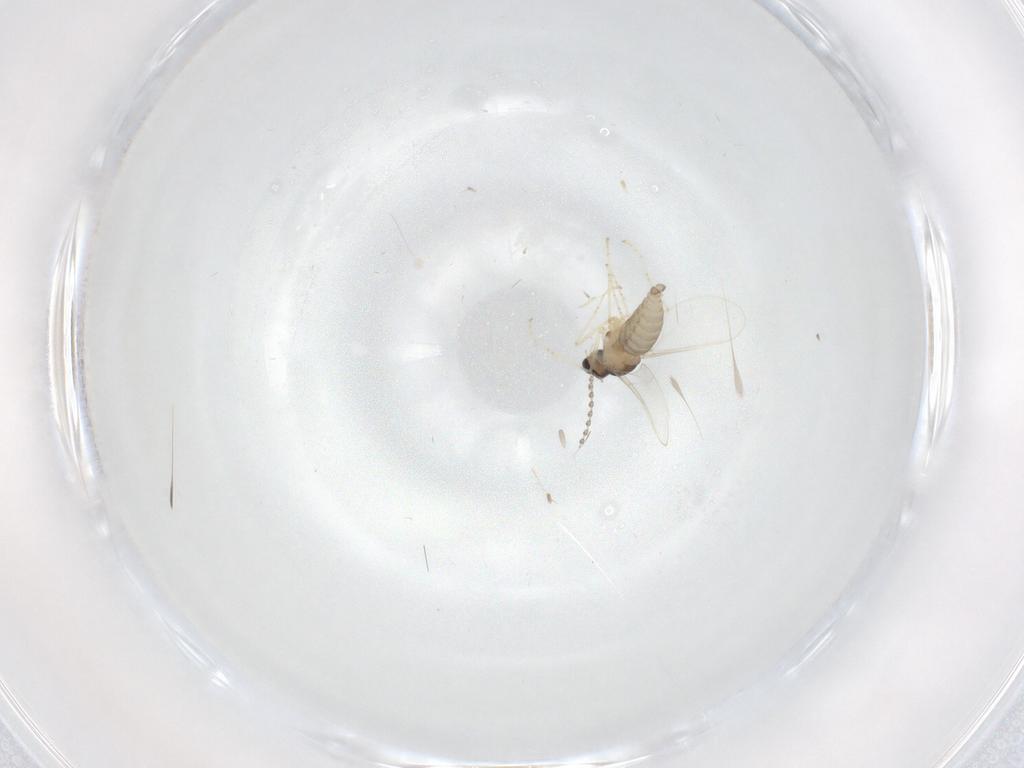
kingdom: Animalia
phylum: Arthropoda
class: Insecta
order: Diptera
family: Cecidomyiidae
